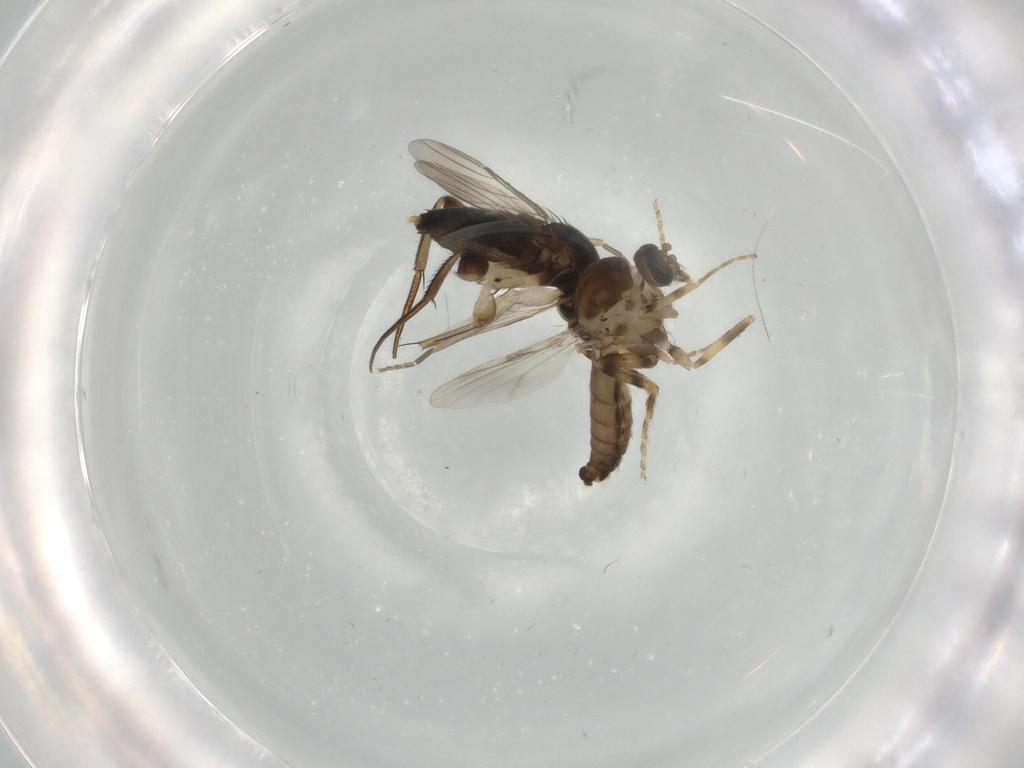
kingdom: Animalia
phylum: Arthropoda
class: Insecta
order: Diptera
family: Phoridae
